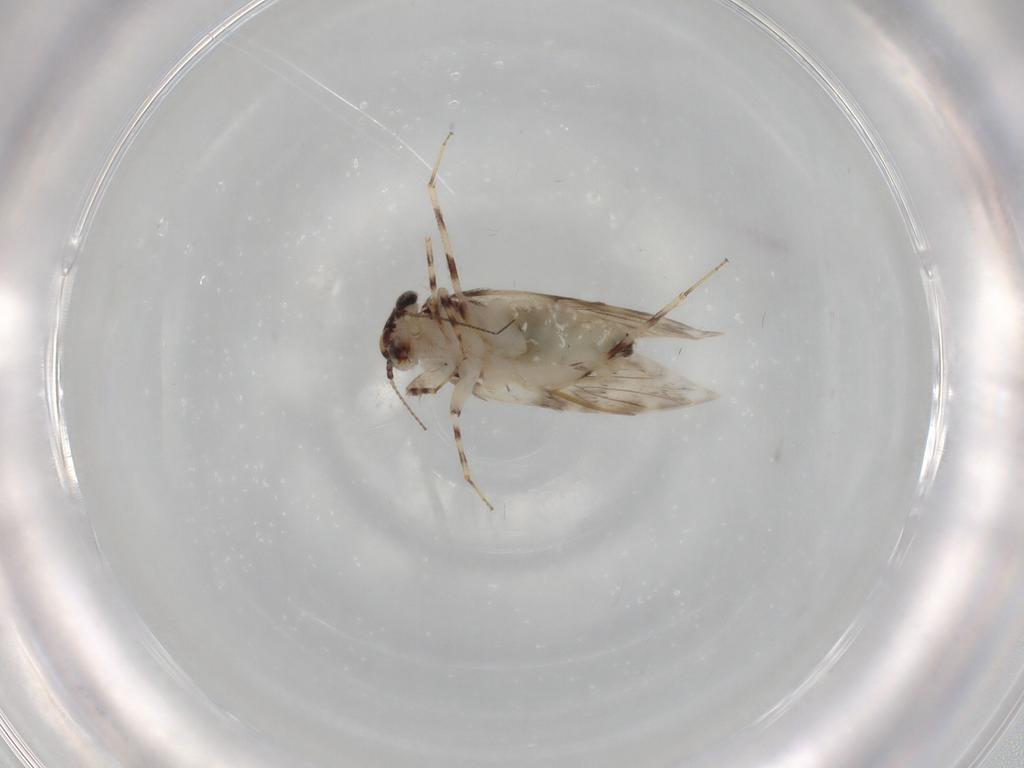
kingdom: Animalia
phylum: Arthropoda
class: Insecta
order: Psocodea
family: Lepidopsocidae
